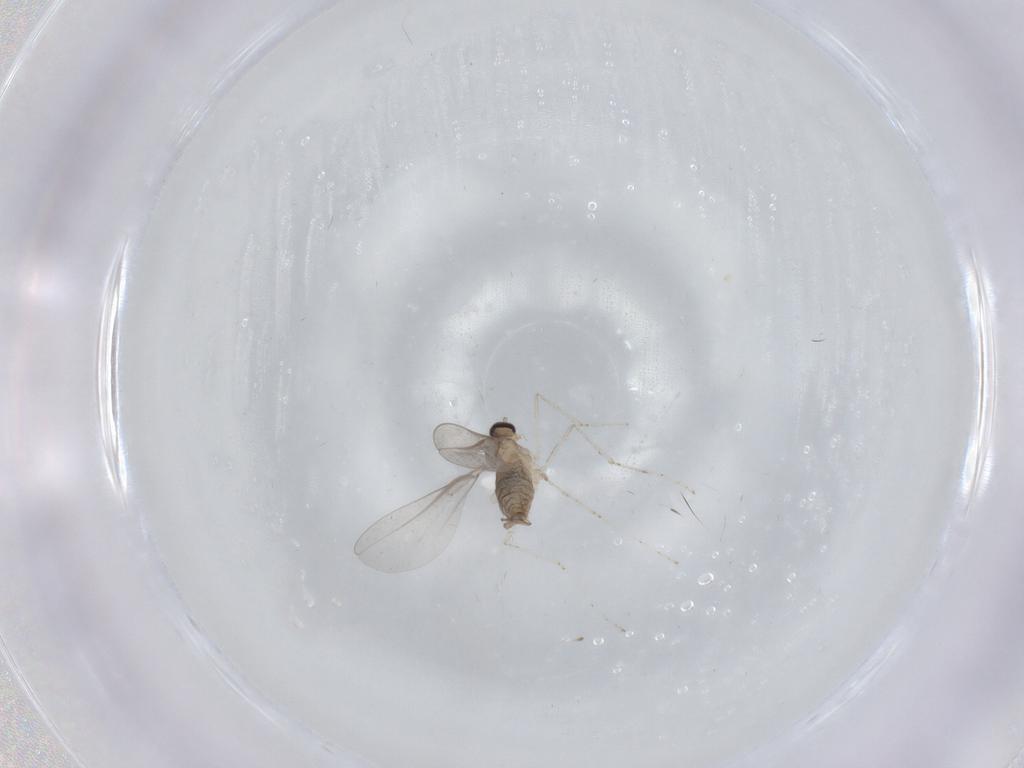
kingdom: Animalia
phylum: Arthropoda
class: Insecta
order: Diptera
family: Cecidomyiidae
